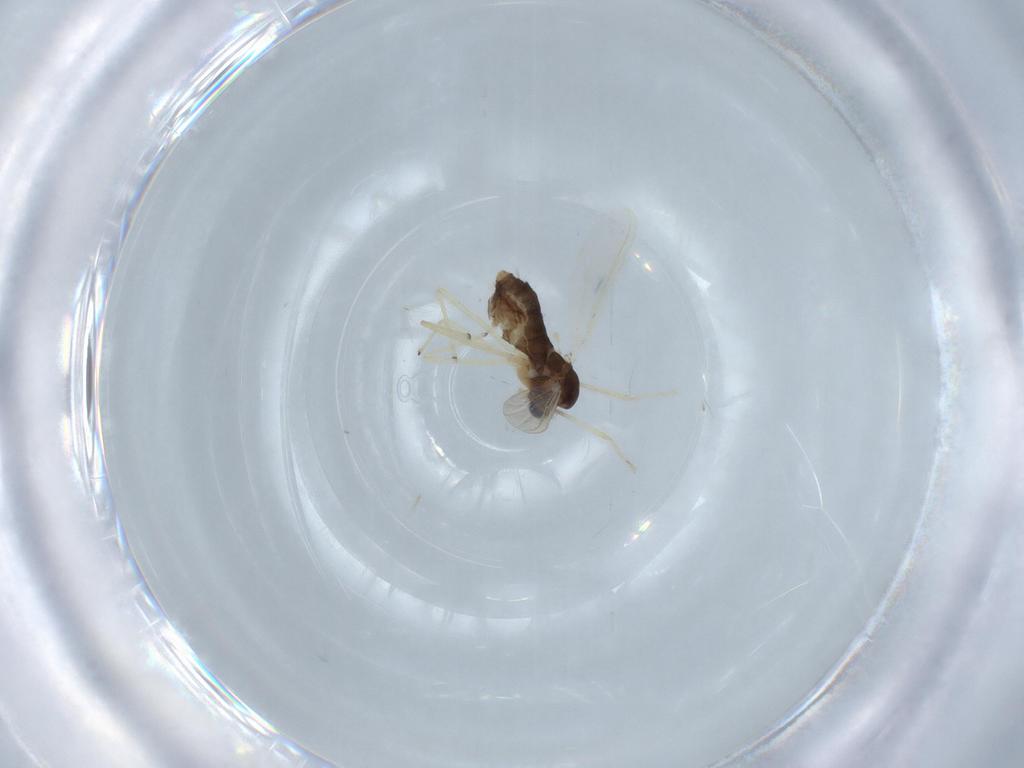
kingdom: Animalia
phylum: Arthropoda
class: Insecta
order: Diptera
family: Chironomidae
